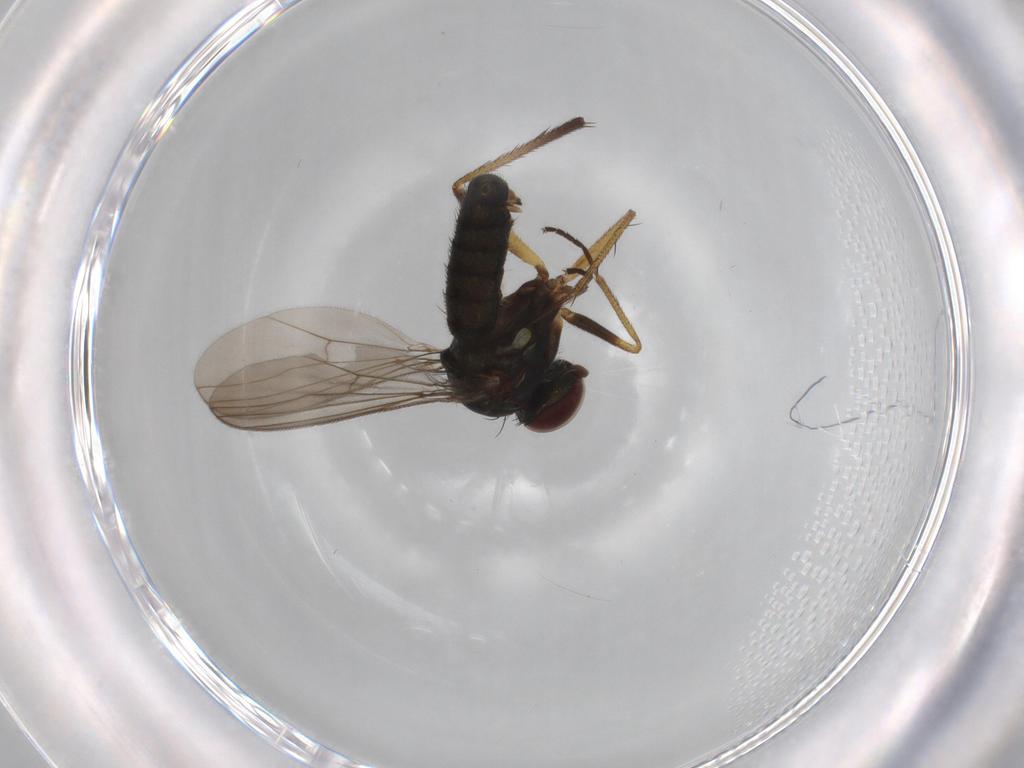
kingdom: Animalia
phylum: Arthropoda
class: Insecta
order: Diptera
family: Dolichopodidae
